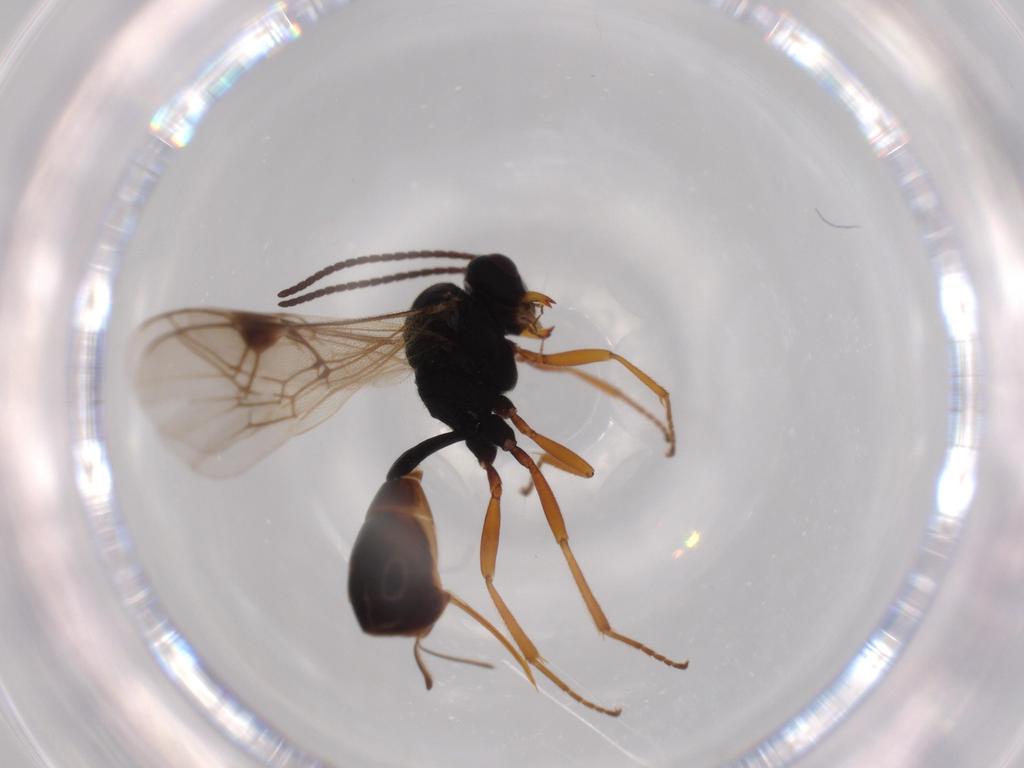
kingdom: Animalia
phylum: Arthropoda
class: Insecta
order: Hymenoptera
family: Ichneumonidae
